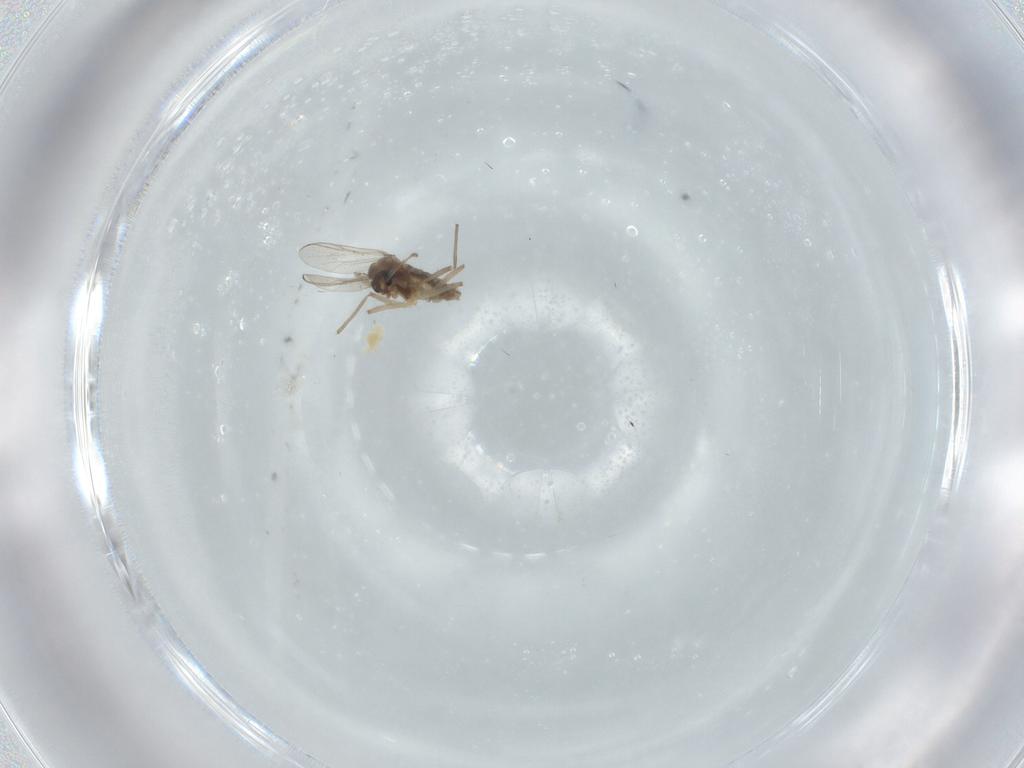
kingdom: Animalia
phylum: Arthropoda
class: Insecta
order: Diptera
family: Chironomidae
